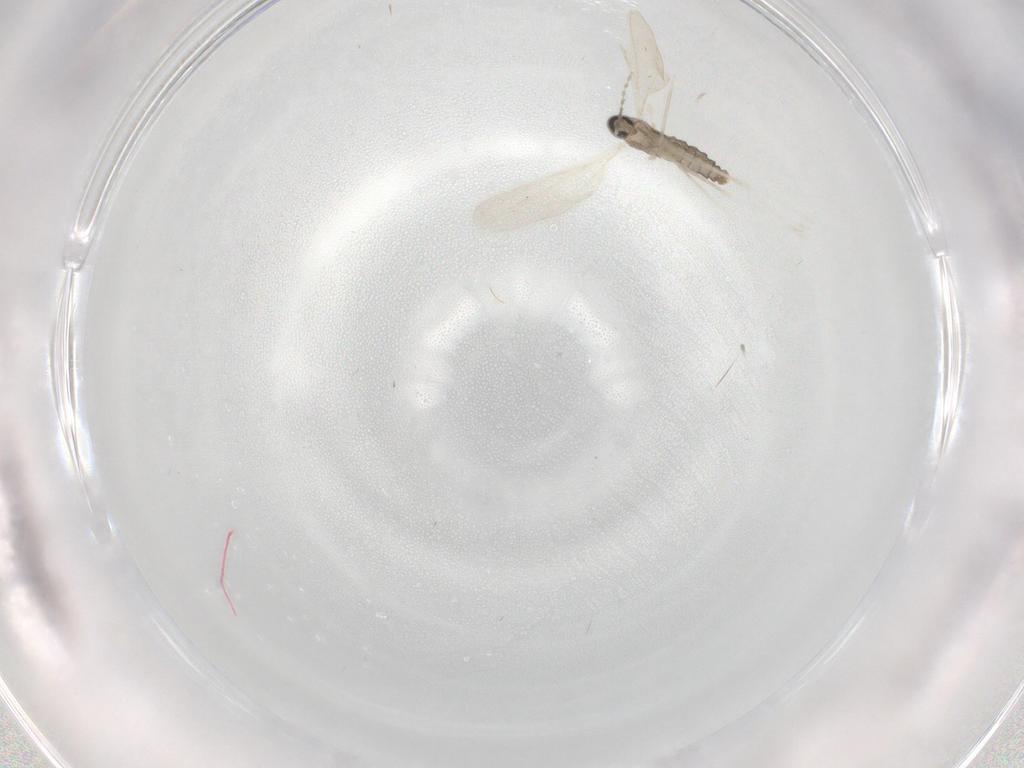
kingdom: Animalia
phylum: Arthropoda
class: Insecta
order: Diptera
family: Cecidomyiidae
